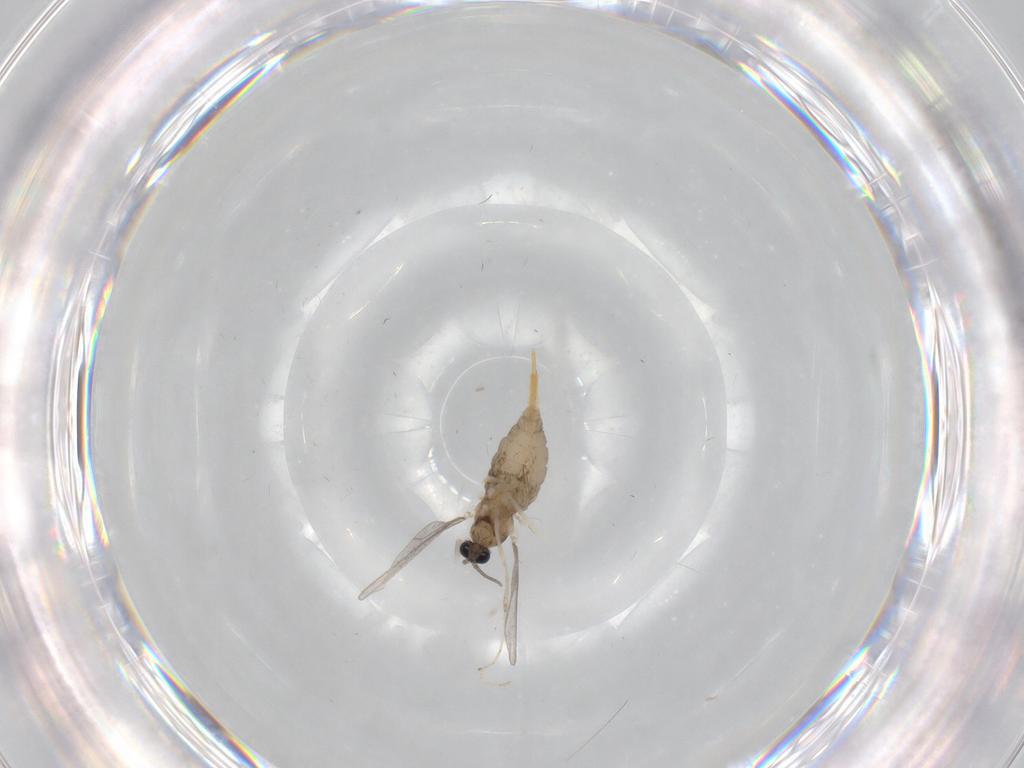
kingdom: Animalia
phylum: Arthropoda
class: Insecta
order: Diptera
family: Cecidomyiidae
